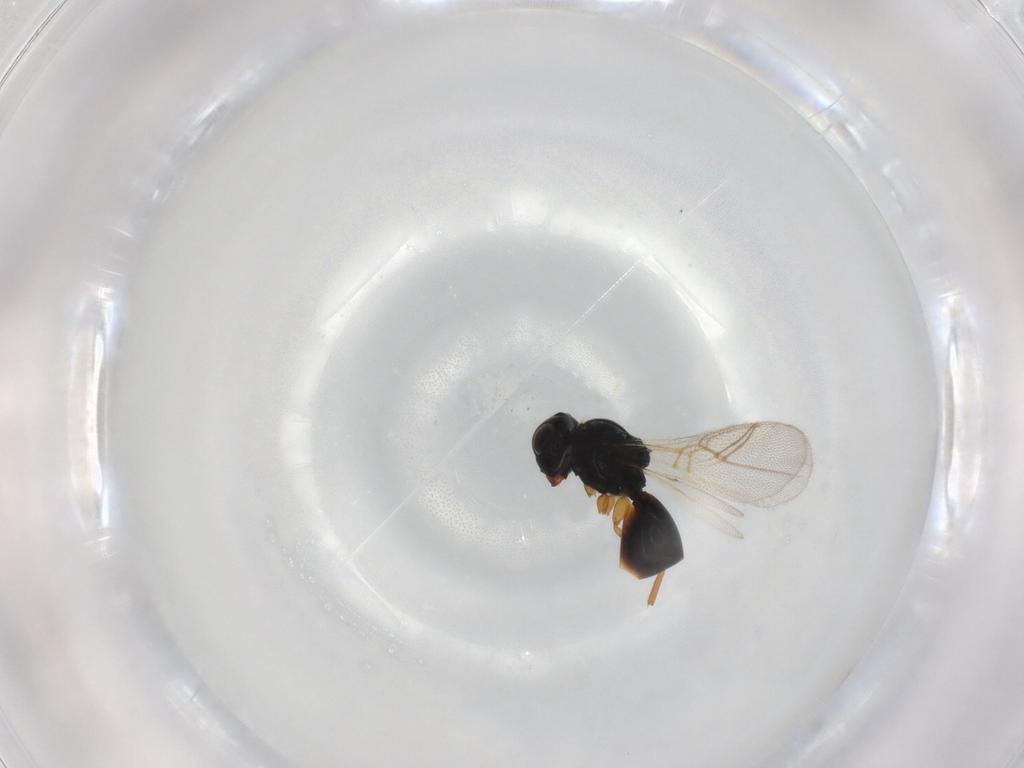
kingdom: Animalia
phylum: Arthropoda
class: Insecta
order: Hymenoptera
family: Figitidae
